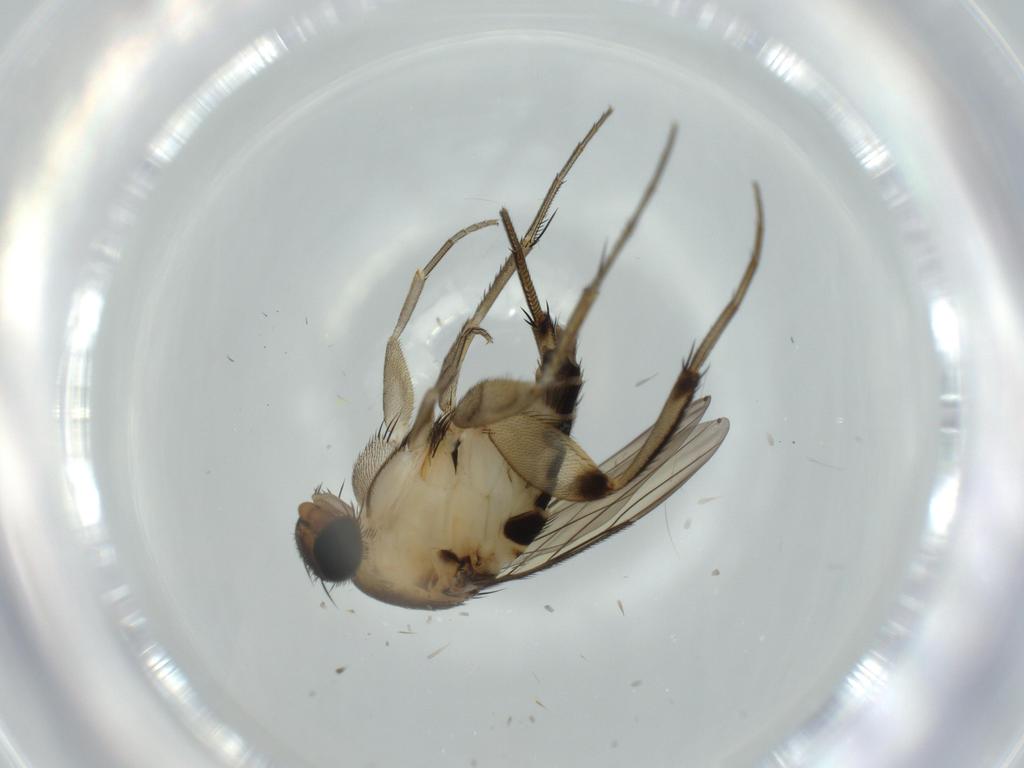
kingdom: Animalia
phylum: Arthropoda
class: Insecta
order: Diptera
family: Phoridae
